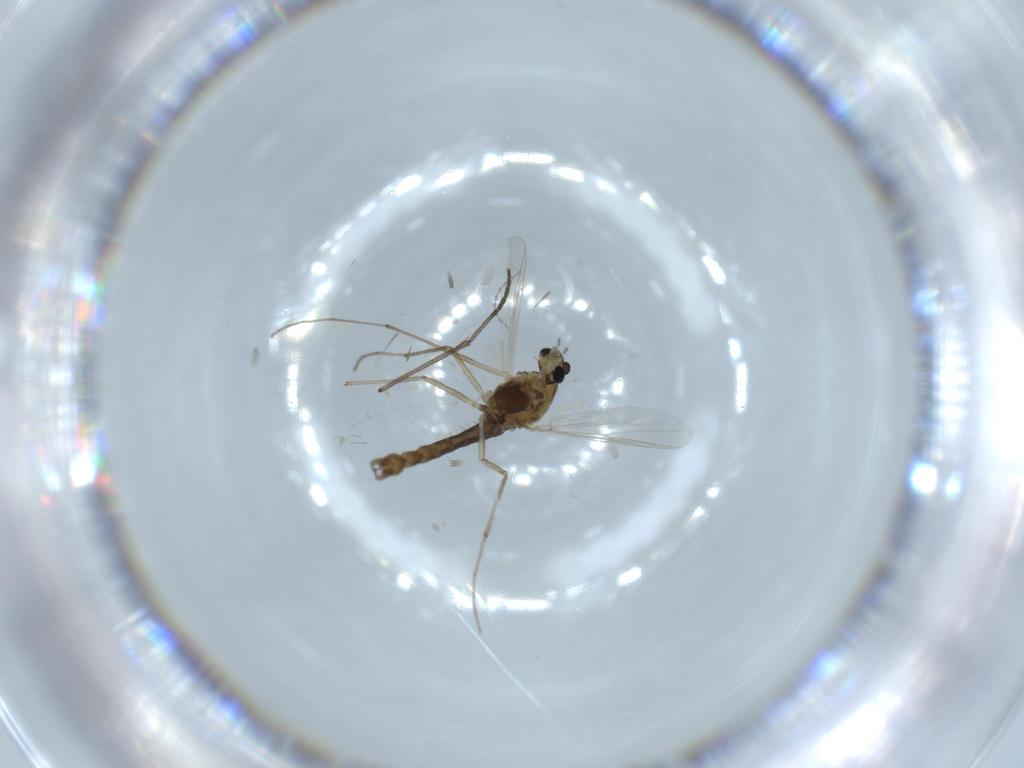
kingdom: Animalia
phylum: Arthropoda
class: Insecta
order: Diptera
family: Chironomidae
